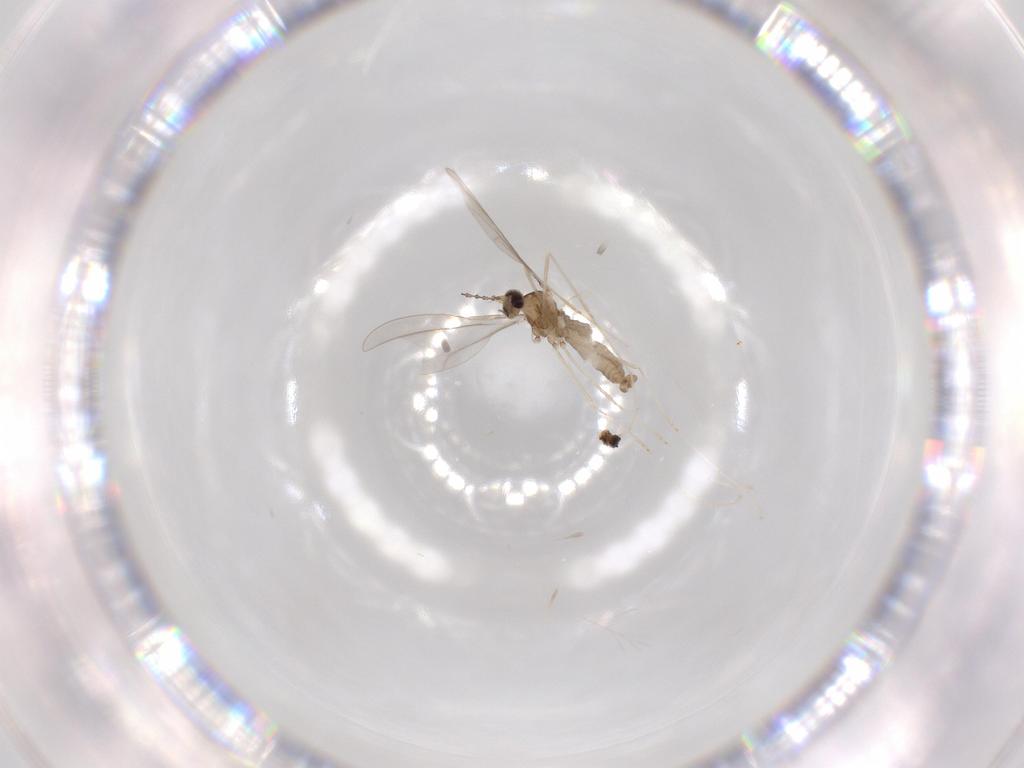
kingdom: Animalia
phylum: Arthropoda
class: Insecta
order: Diptera
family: Cecidomyiidae
